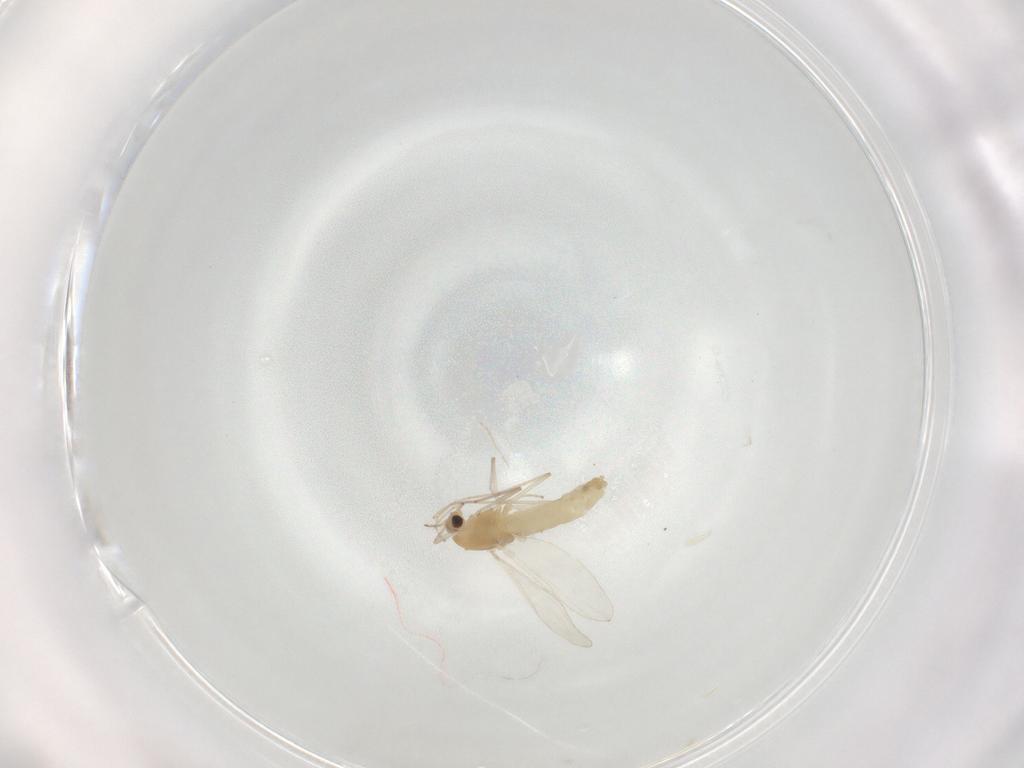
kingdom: Animalia
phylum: Arthropoda
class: Insecta
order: Diptera
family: Chironomidae
